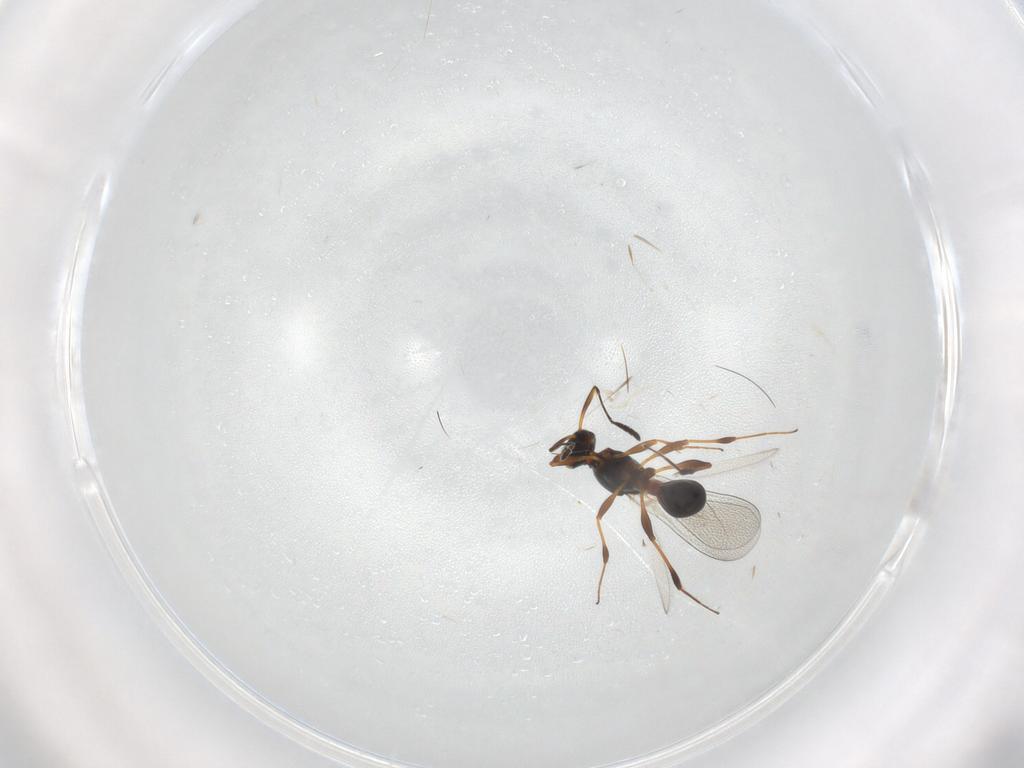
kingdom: Animalia
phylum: Arthropoda
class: Insecta
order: Hymenoptera
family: Platygastridae
